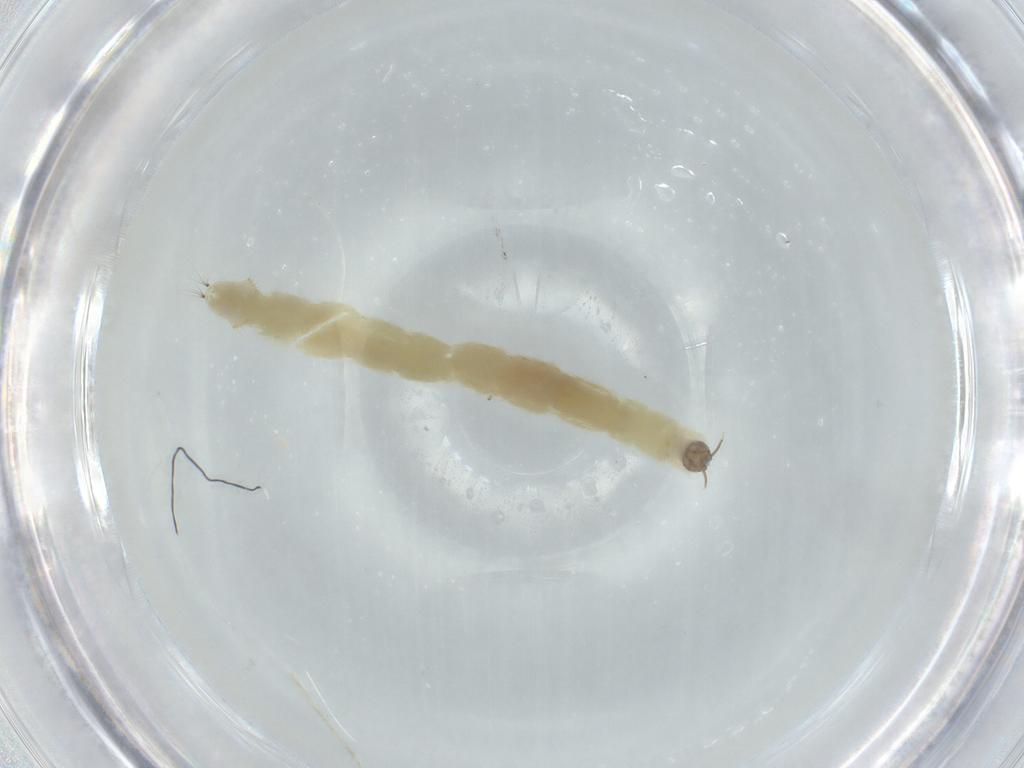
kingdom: Animalia
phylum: Arthropoda
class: Insecta
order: Diptera
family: Chironomidae
